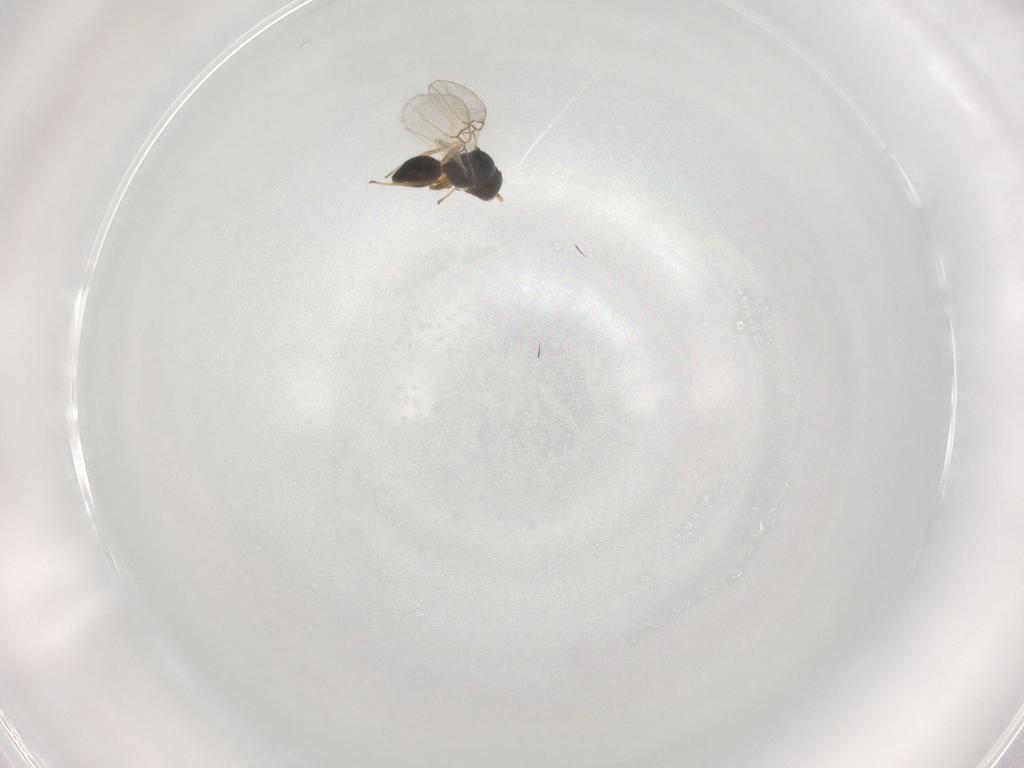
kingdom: Animalia
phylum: Arthropoda
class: Insecta
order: Hymenoptera
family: Figitidae
